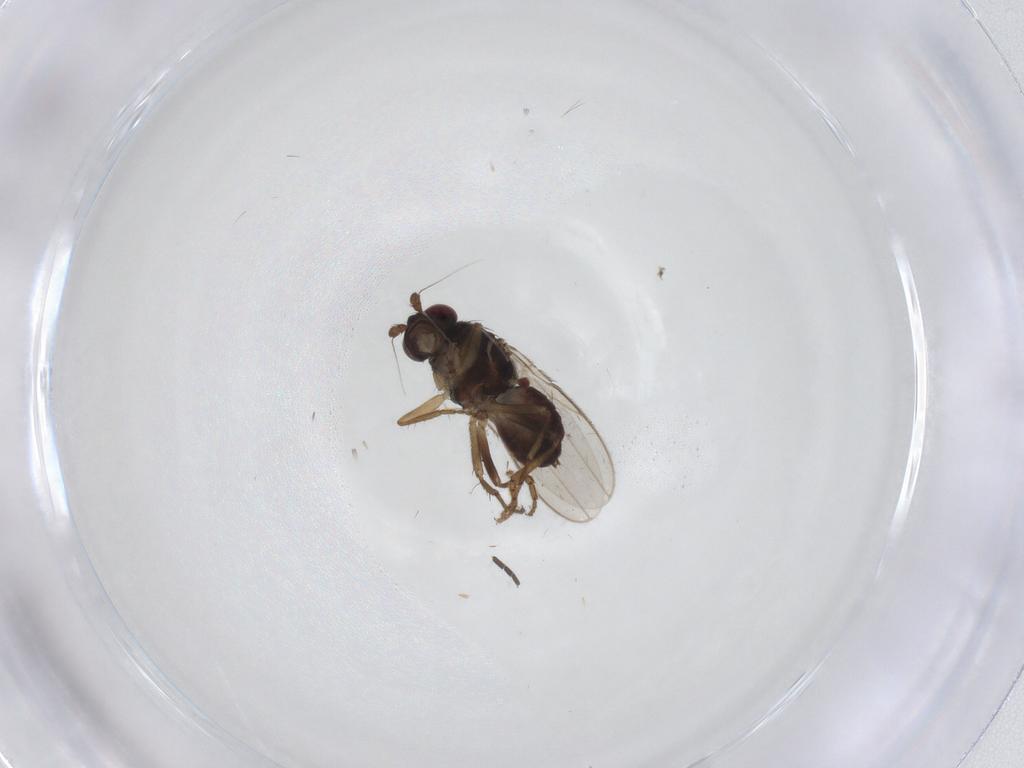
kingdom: Animalia
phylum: Arthropoda
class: Insecta
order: Diptera
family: Sphaeroceridae
